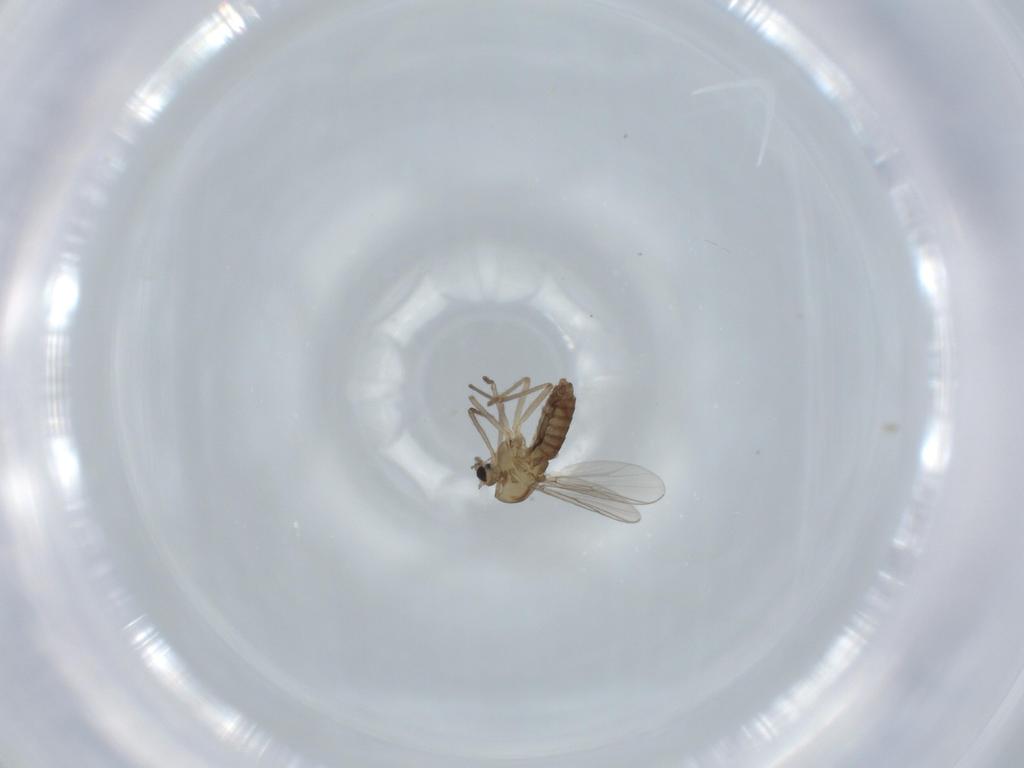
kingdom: Animalia
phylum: Arthropoda
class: Insecta
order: Diptera
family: Chironomidae
